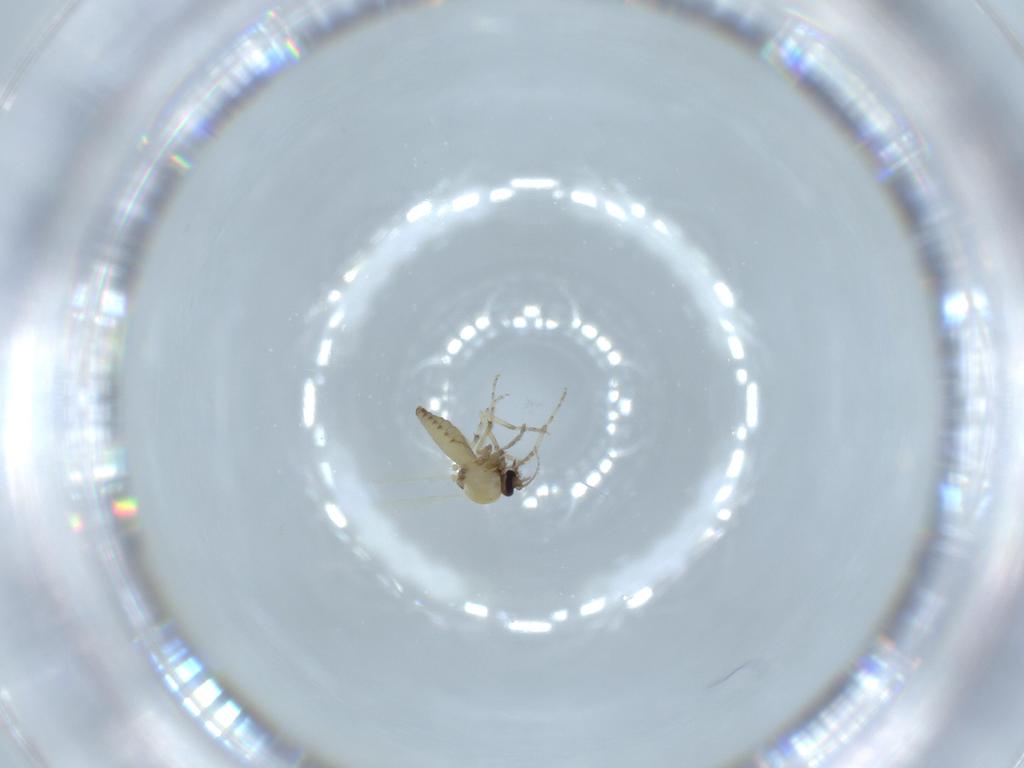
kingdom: Animalia
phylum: Arthropoda
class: Insecta
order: Diptera
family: Ceratopogonidae
